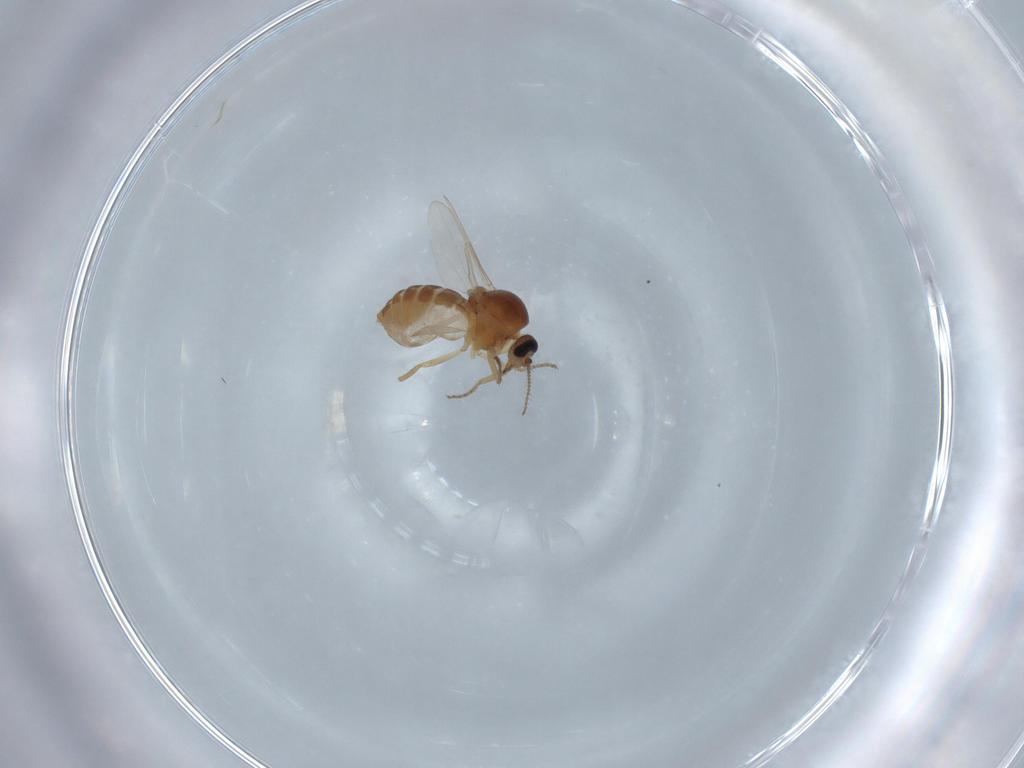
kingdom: Animalia
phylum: Arthropoda
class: Insecta
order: Diptera
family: Ceratopogonidae
